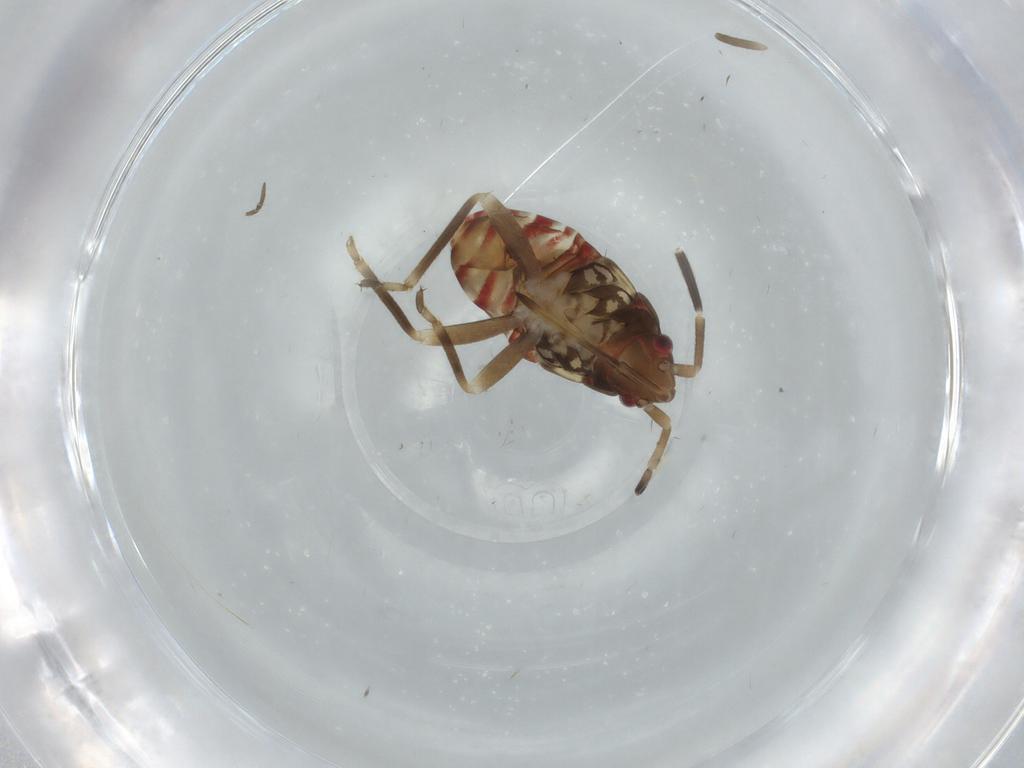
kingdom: Animalia
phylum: Arthropoda
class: Insecta
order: Hemiptera
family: Rhyparochromidae
